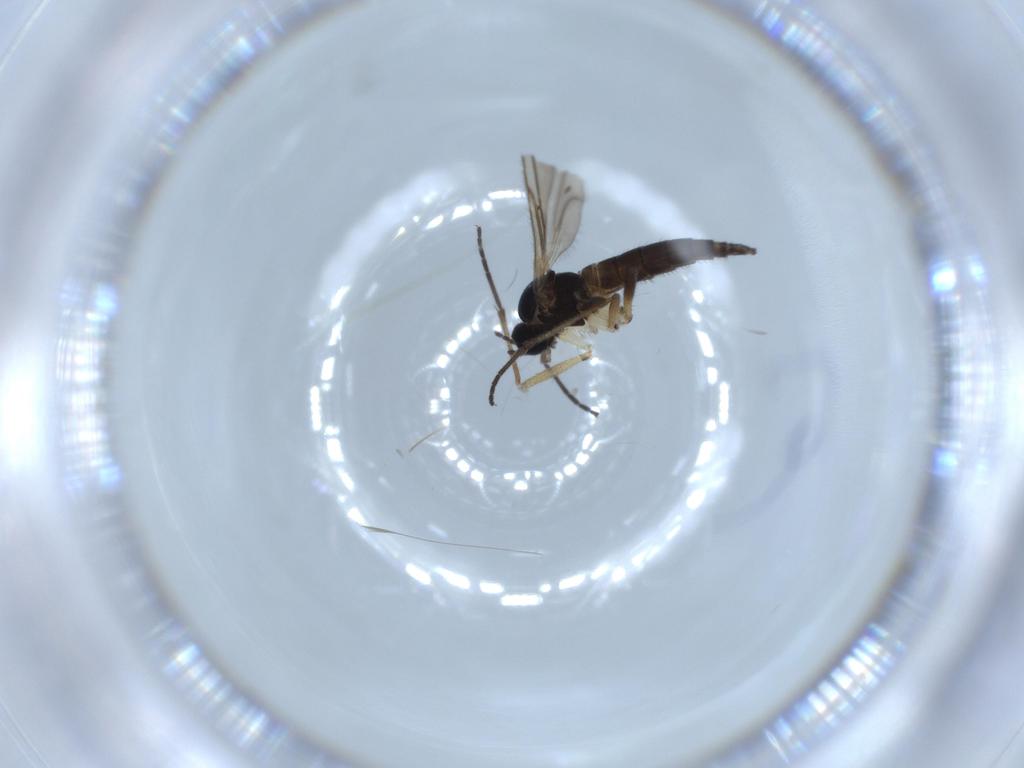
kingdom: Animalia
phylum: Arthropoda
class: Insecta
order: Diptera
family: Sciaridae
